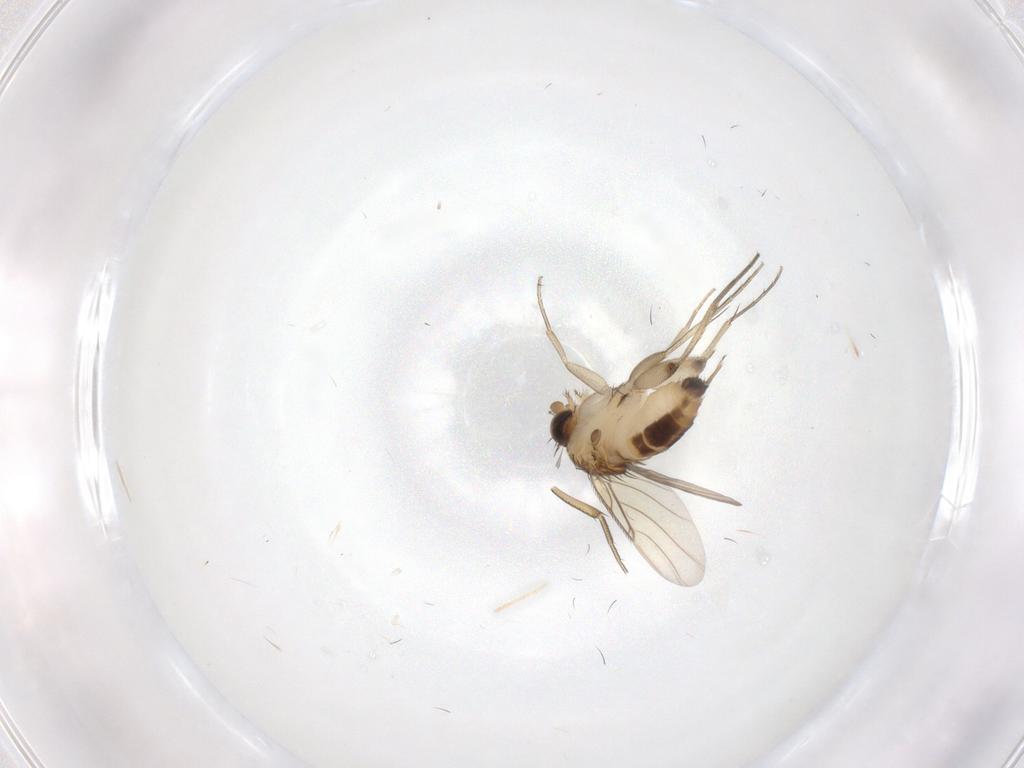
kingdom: Animalia
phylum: Arthropoda
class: Insecta
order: Diptera
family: Phoridae
